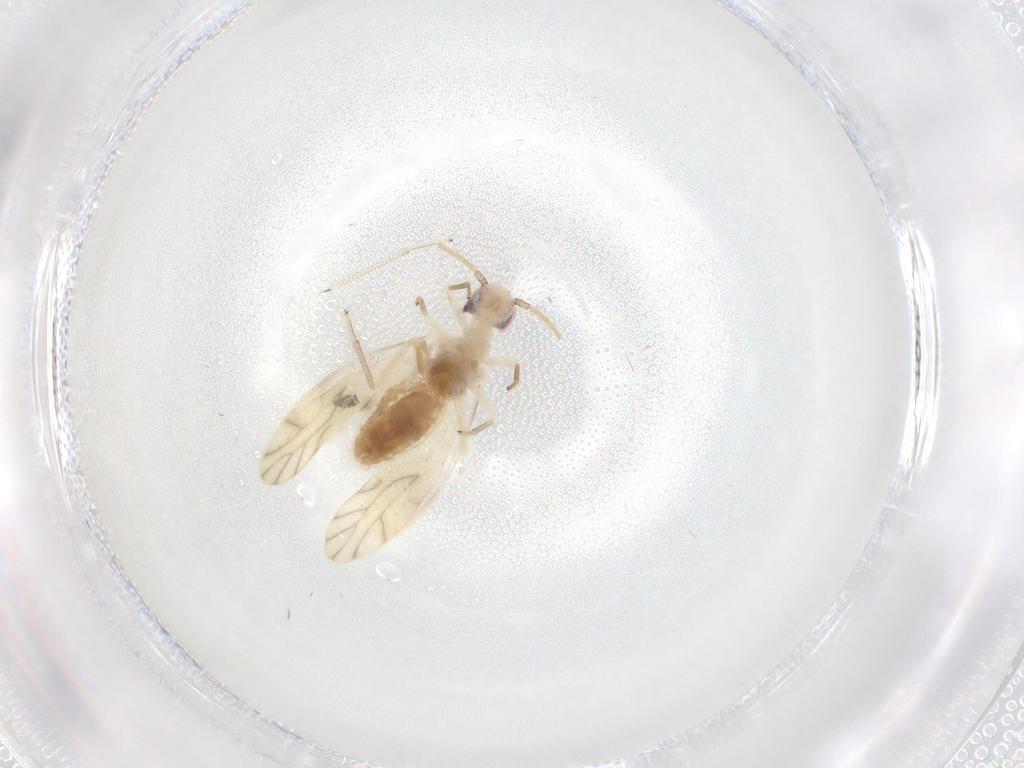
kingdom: Animalia
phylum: Arthropoda
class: Insecta
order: Psocodea
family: Caeciliusidae
